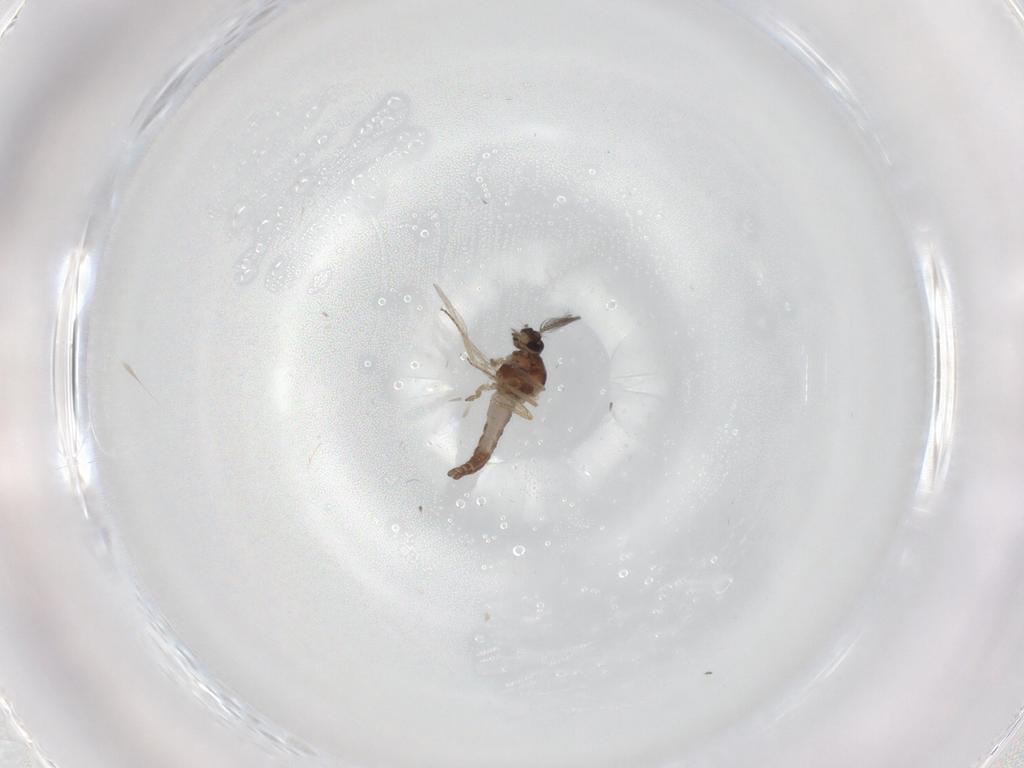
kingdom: Animalia
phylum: Arthropoda
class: Insecta
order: Diptera
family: Ceratopogonidae
